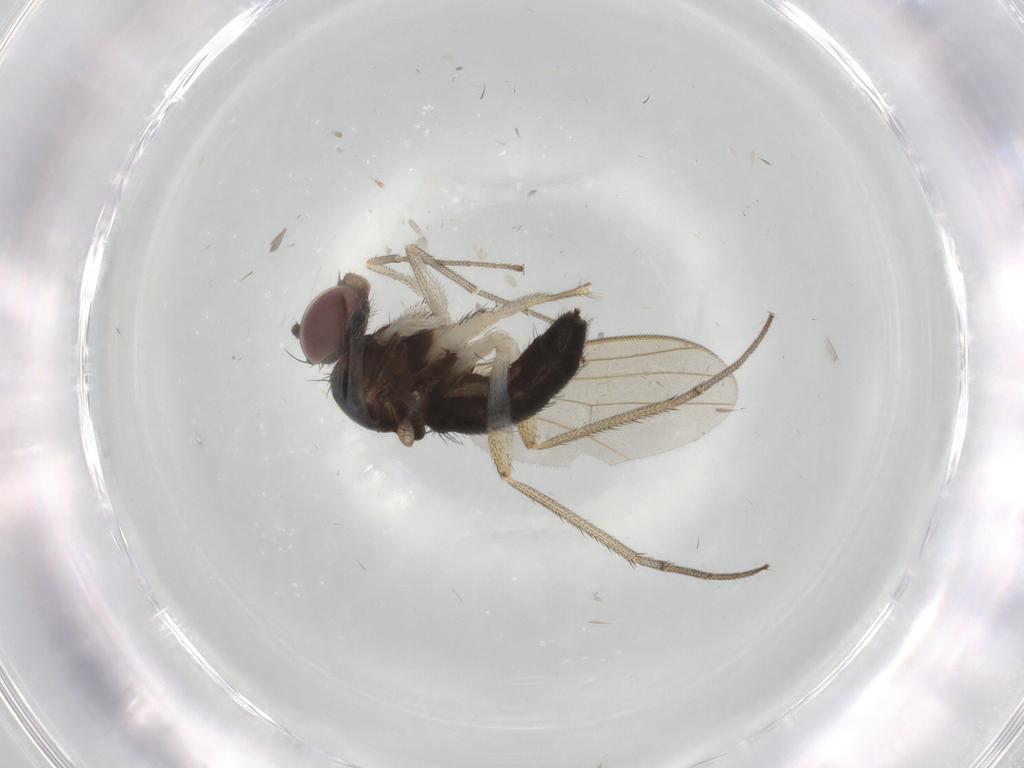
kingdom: Animalia
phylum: Arthropoda
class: Insecta
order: Diptera
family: Dolichopodidae
